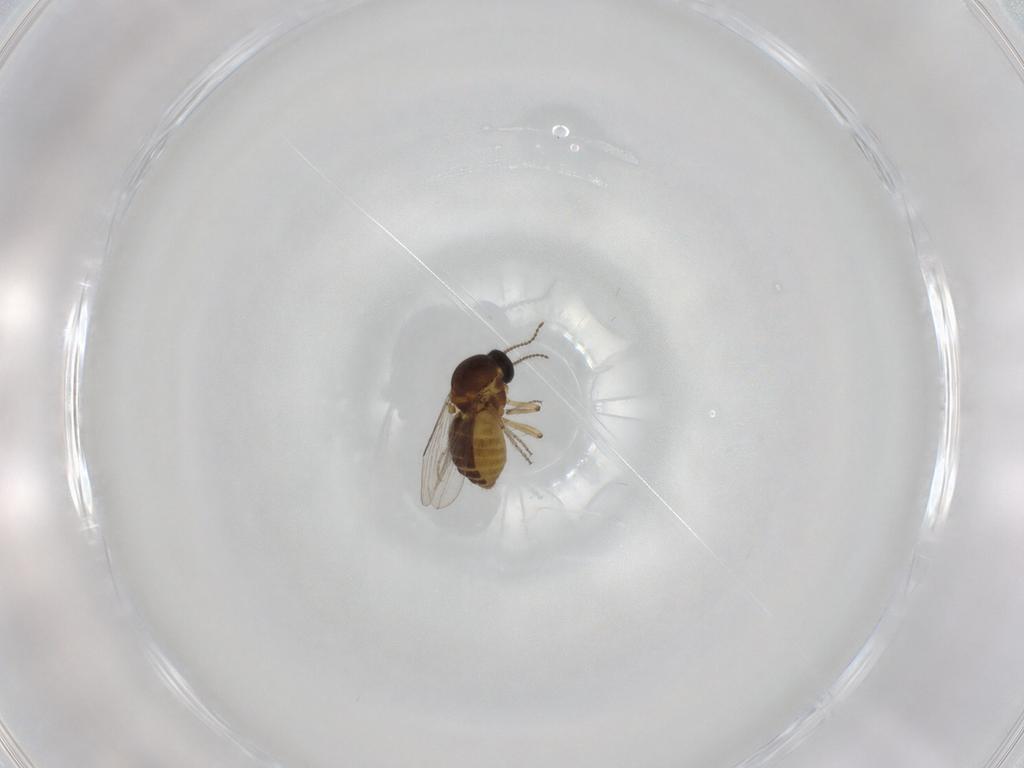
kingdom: Animalia
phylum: Arthropoda
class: Insecta
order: Diptera
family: Ceratopogonidae
